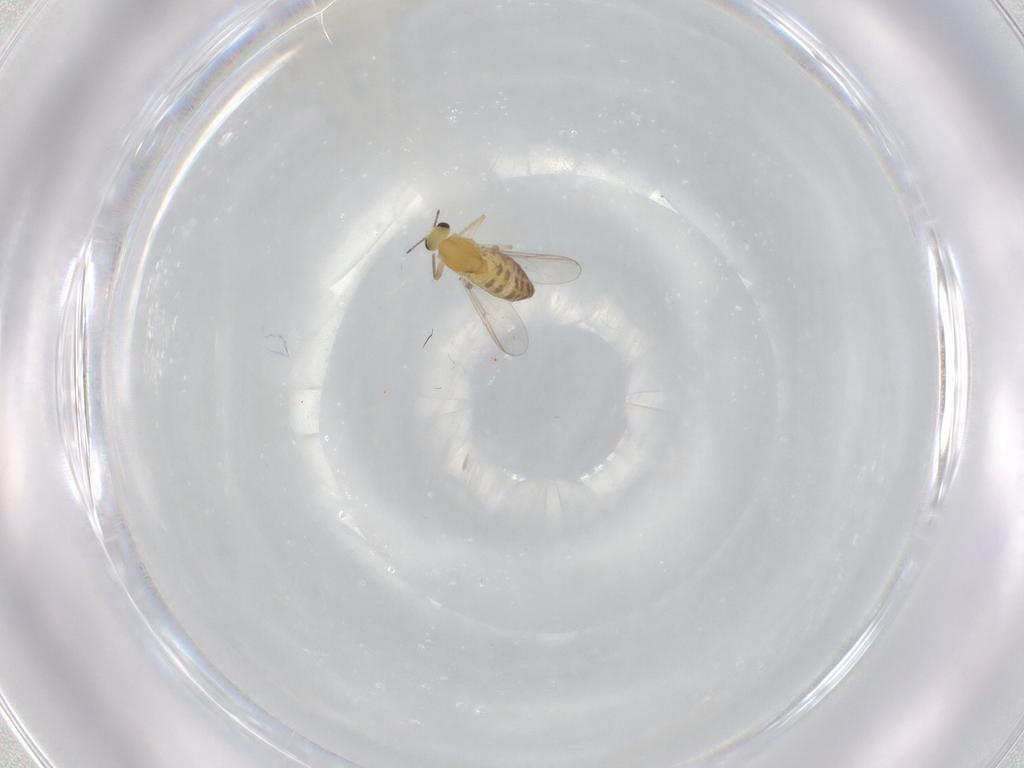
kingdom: Animalia
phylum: Arthropoda
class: Insecta
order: Diptera
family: Chironomidae
